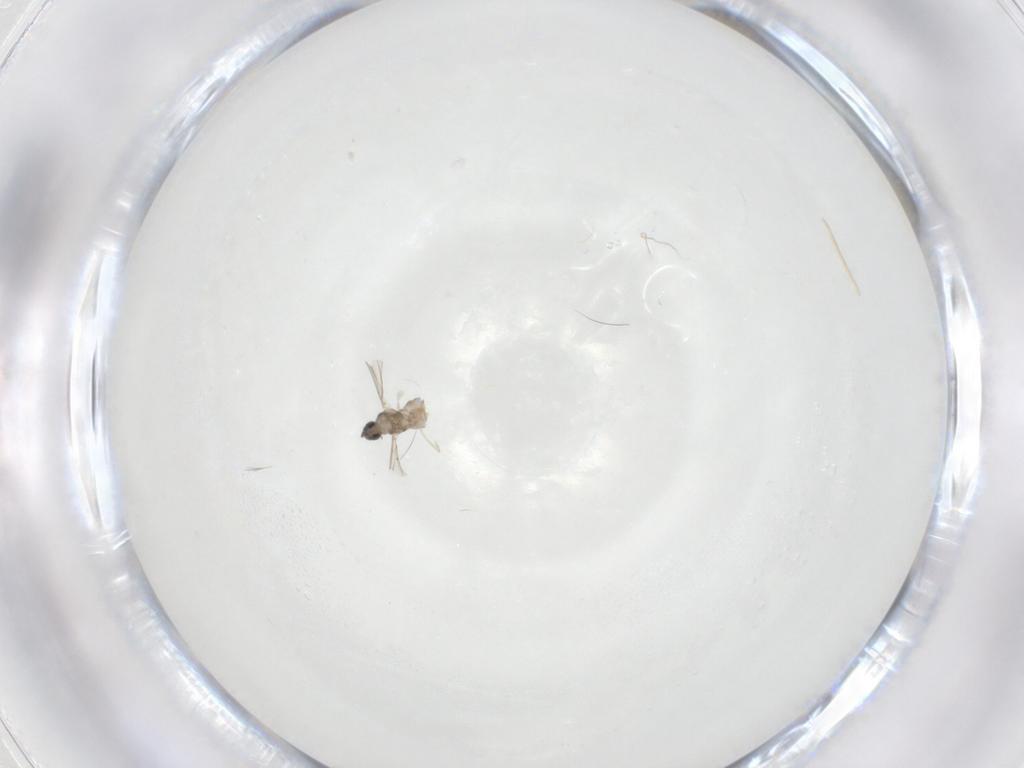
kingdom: Animalia
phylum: Arthropoda
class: Insecta
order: Diptera
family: Cecidomyiidae
